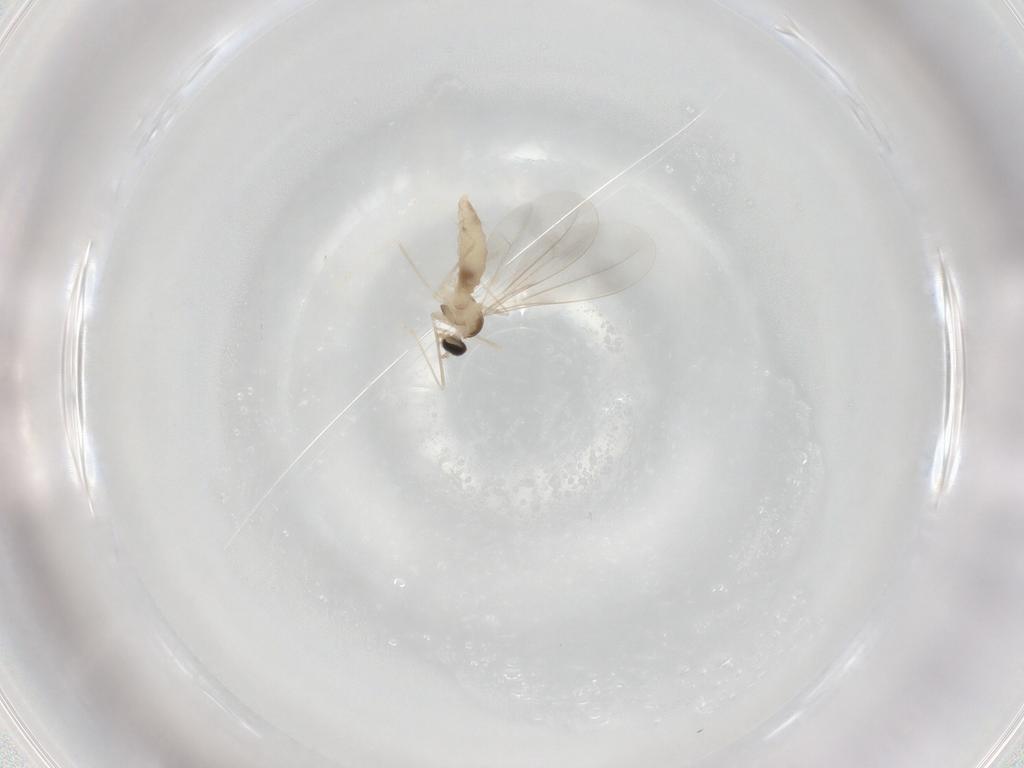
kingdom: Animalia
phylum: Arthropoda
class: Insecta
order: Diptera
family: Cecidomyiidae
